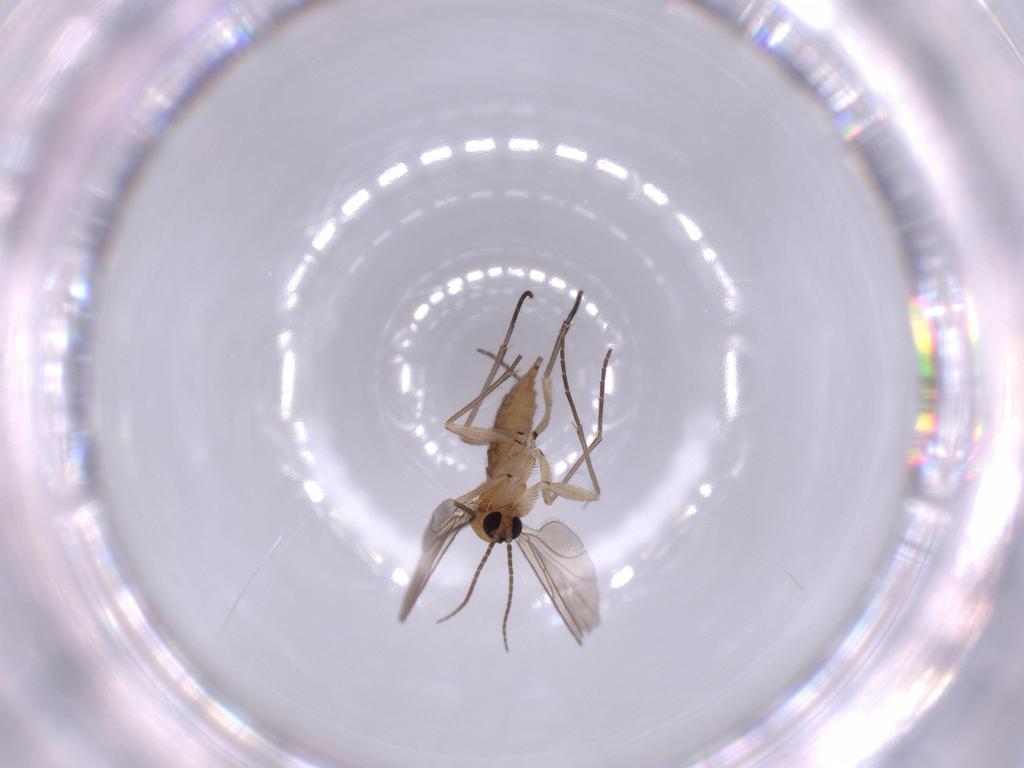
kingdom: Animalia
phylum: Arthropoda
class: Insecta
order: Diptera
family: Sciaridae
